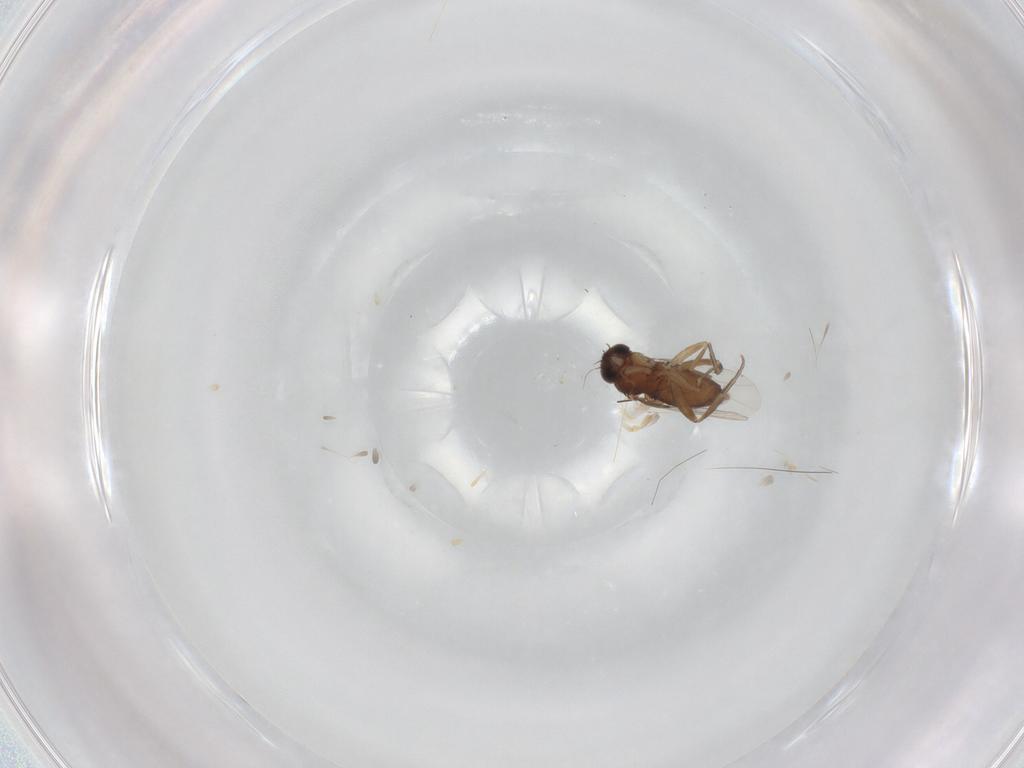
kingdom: Animalia
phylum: Arthropoda
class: Insecta
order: Diptera
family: Phoridae
